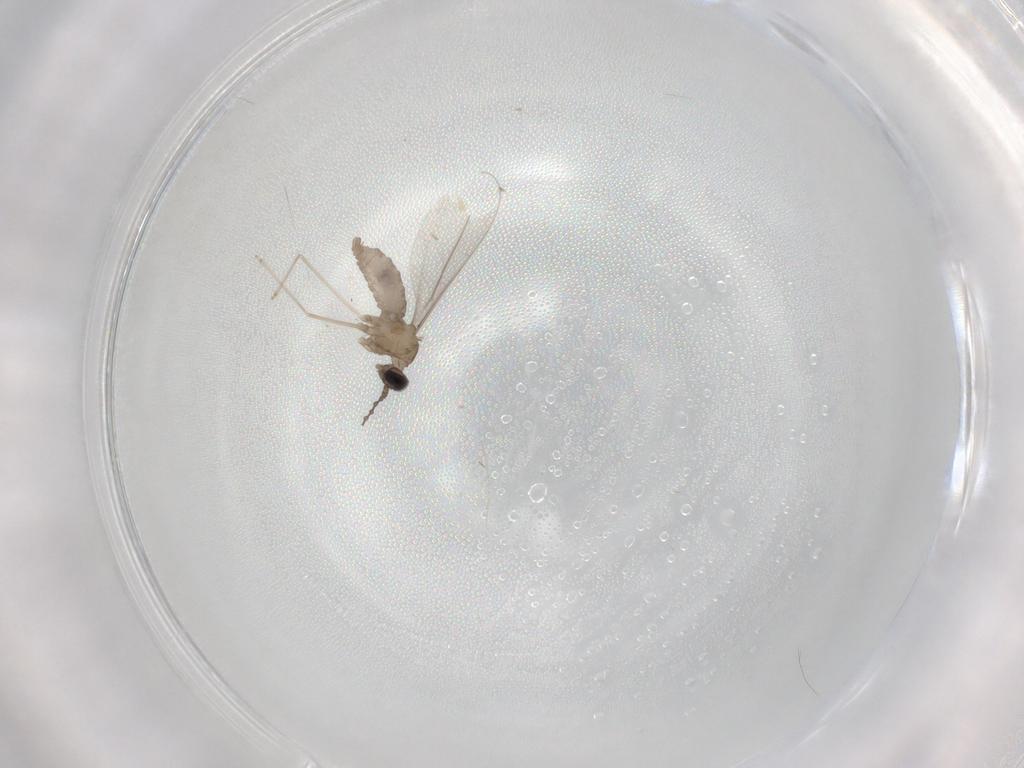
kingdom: Animalia
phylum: Arthropoda
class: Insecta
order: Diptera
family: Cecidomyiidae
